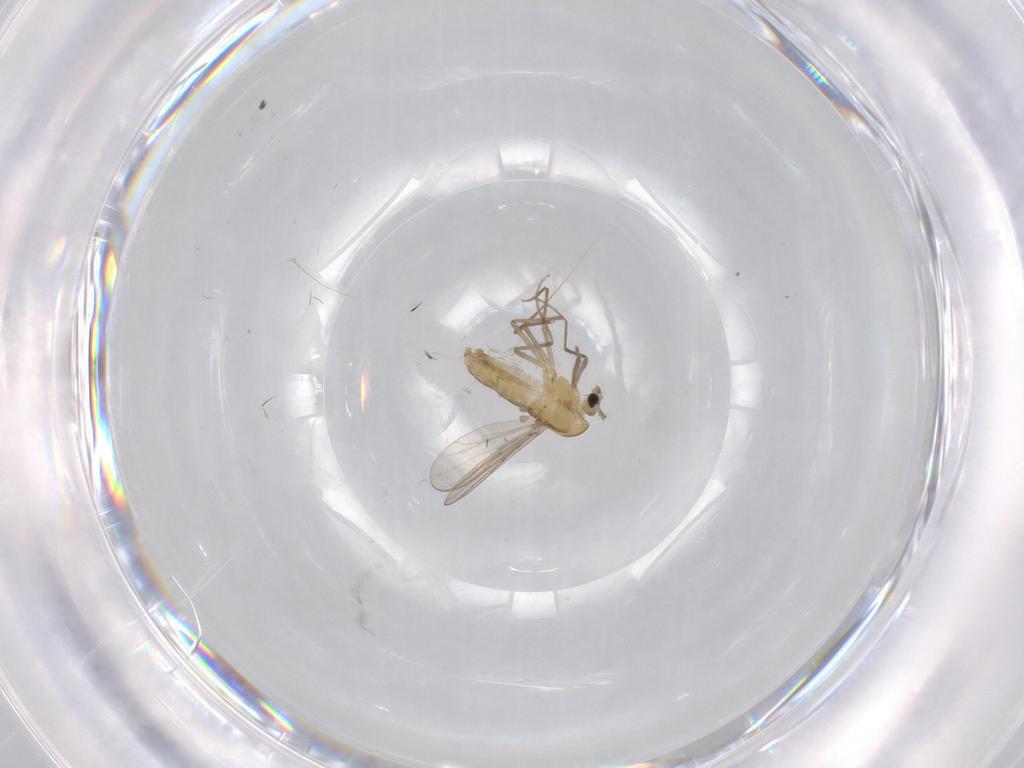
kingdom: Animalia
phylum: Arthropoda
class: Insecta
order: Diptera
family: Chironomidae
